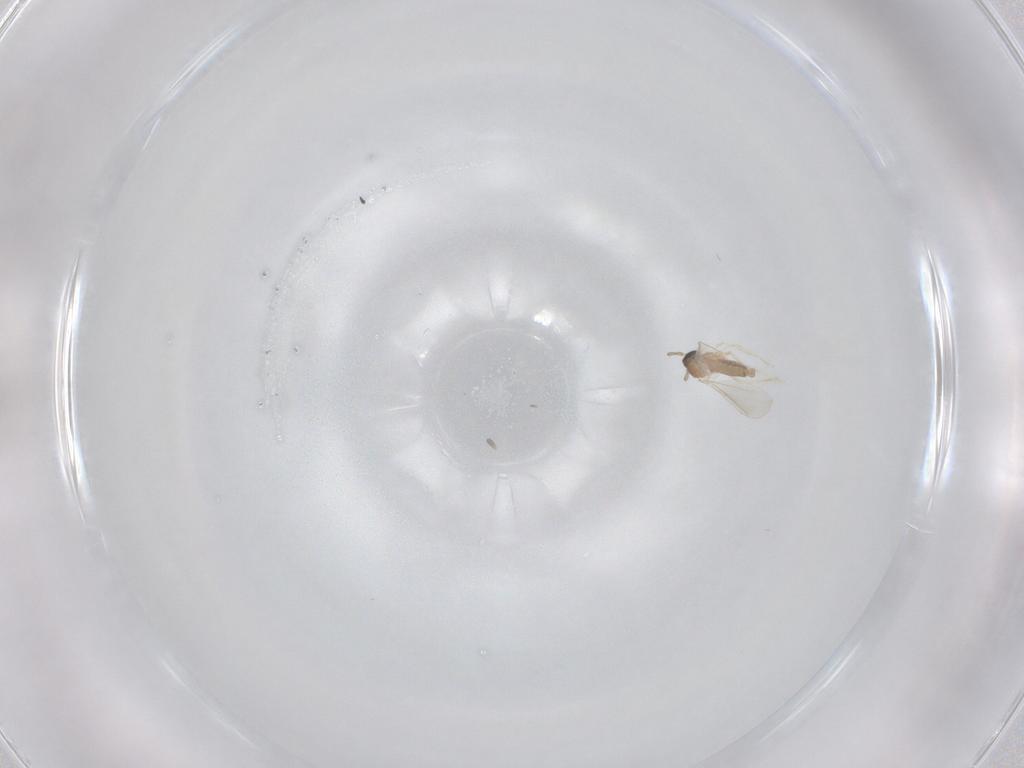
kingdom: Animalia
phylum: Arthropoda
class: Insecta
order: Diptera
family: Cecidomyiidae
